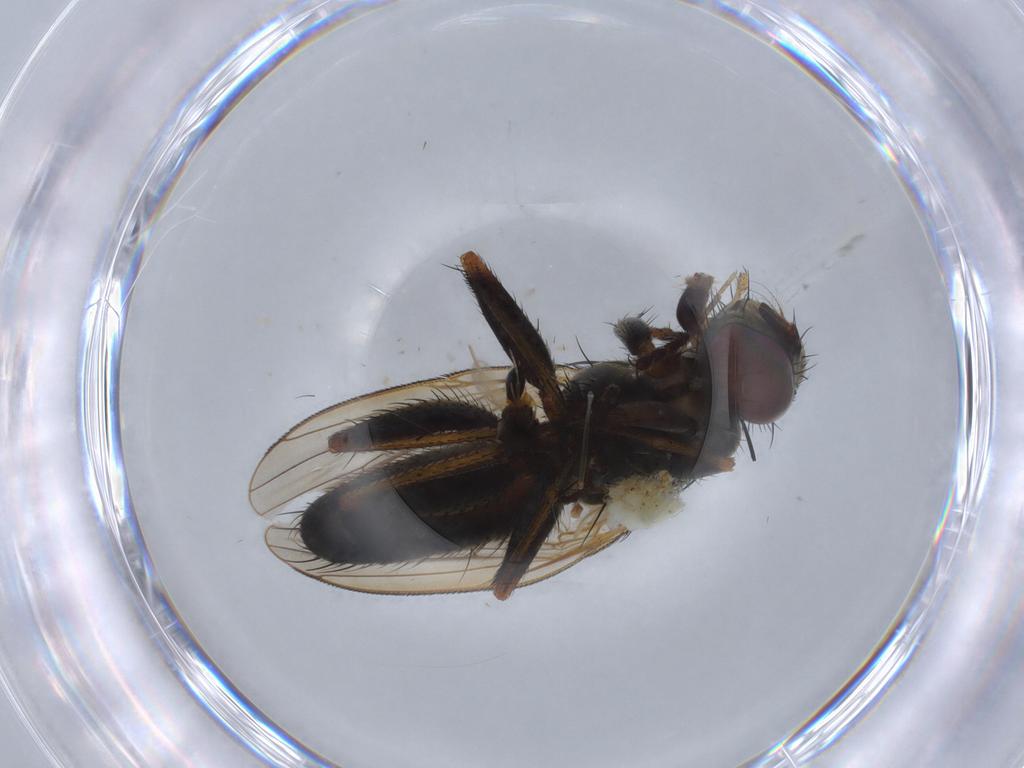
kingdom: Animalia
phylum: Arthropoda
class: Insecta
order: Diptera
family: Muscidae
